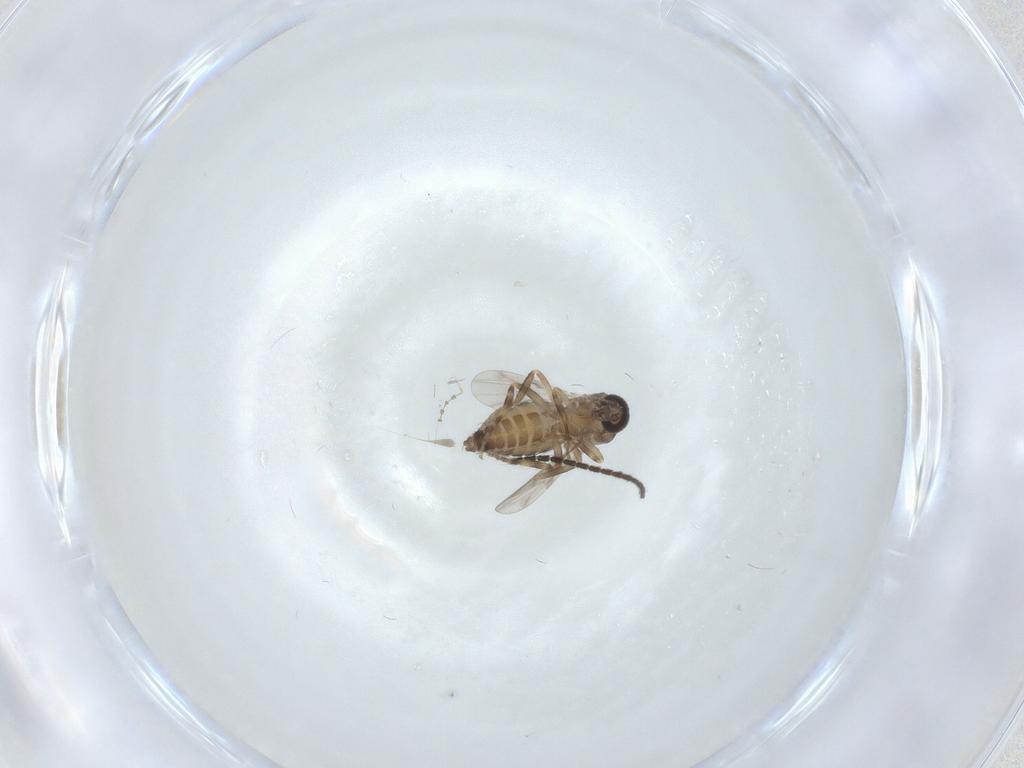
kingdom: Animalia
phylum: Arthropoda
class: Insecta
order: Diptera
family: Ceratopogonidae
